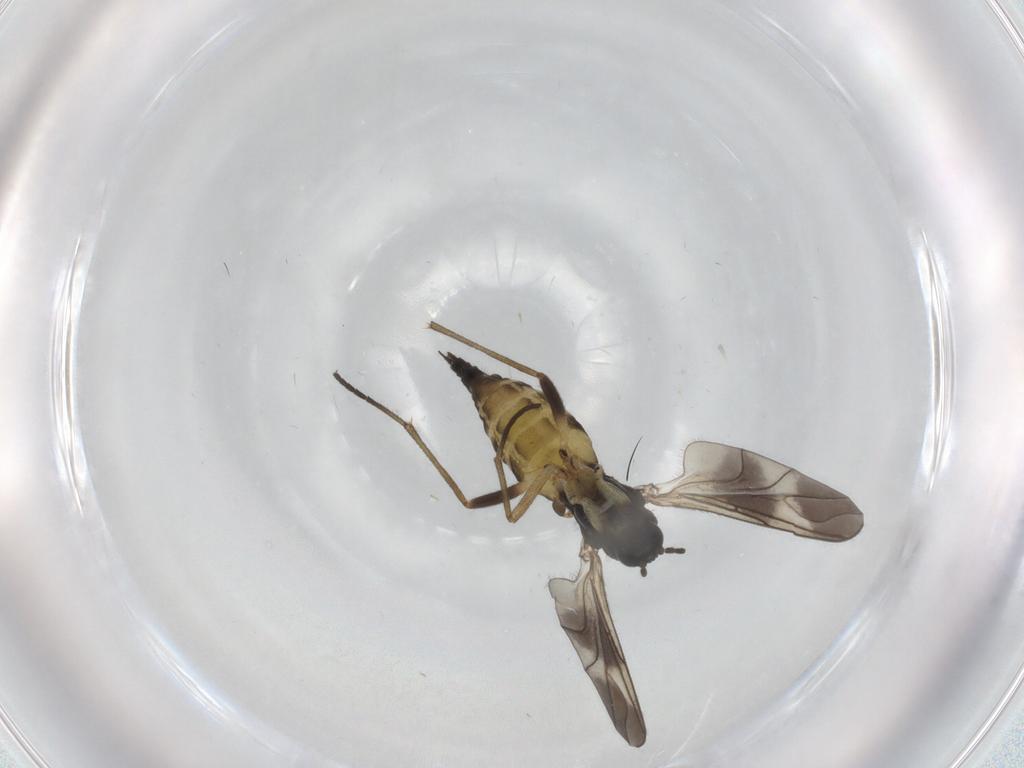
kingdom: Animalia
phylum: Arthropoda
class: Insecta
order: Diptera
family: Sciaridae
